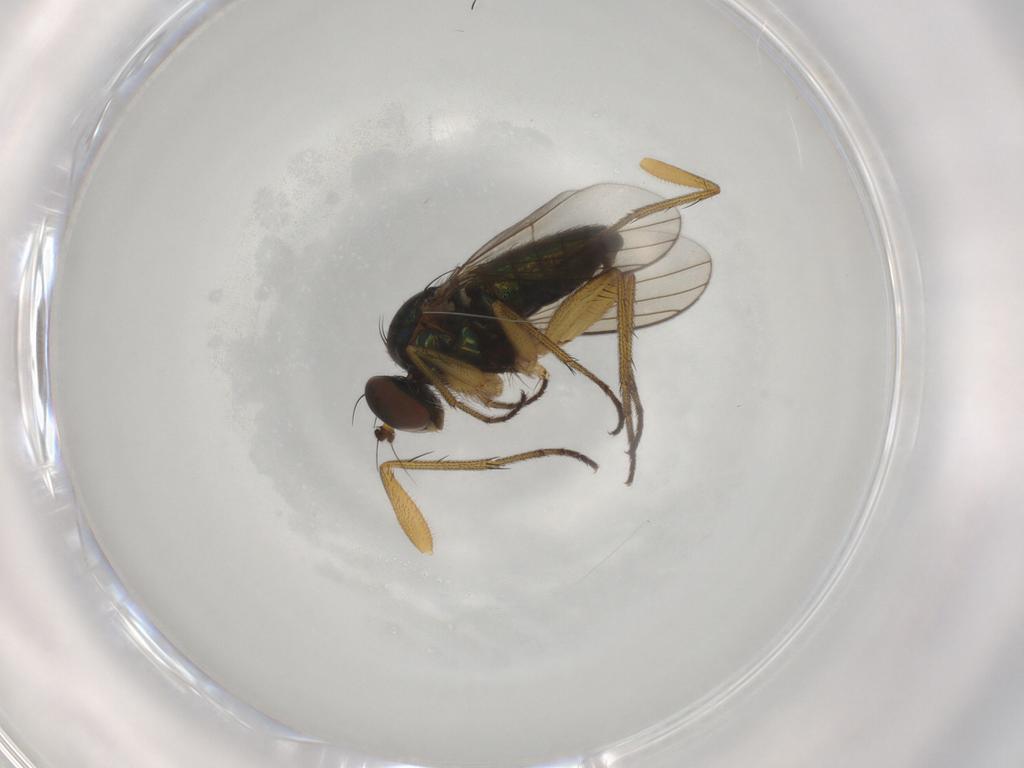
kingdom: Animalia
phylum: Arthropoda
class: Insecta
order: Diptera
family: Dolichopodidae
